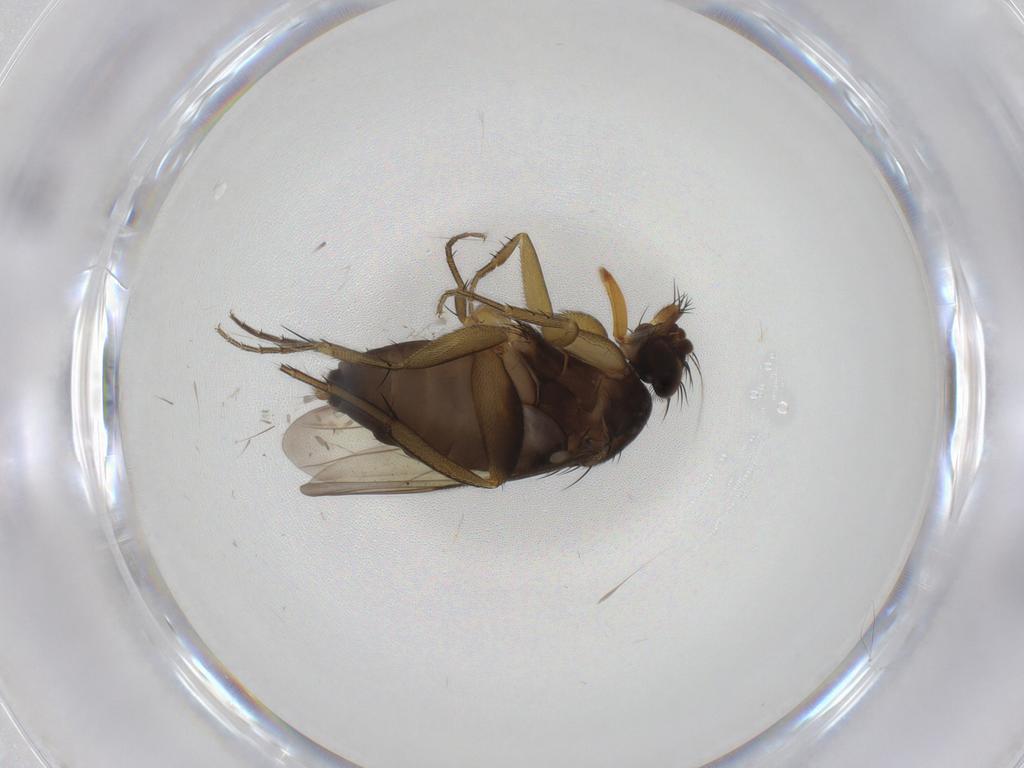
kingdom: Animalia
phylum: Arthropoda
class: Insecta
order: Diptera
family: Phoridae
